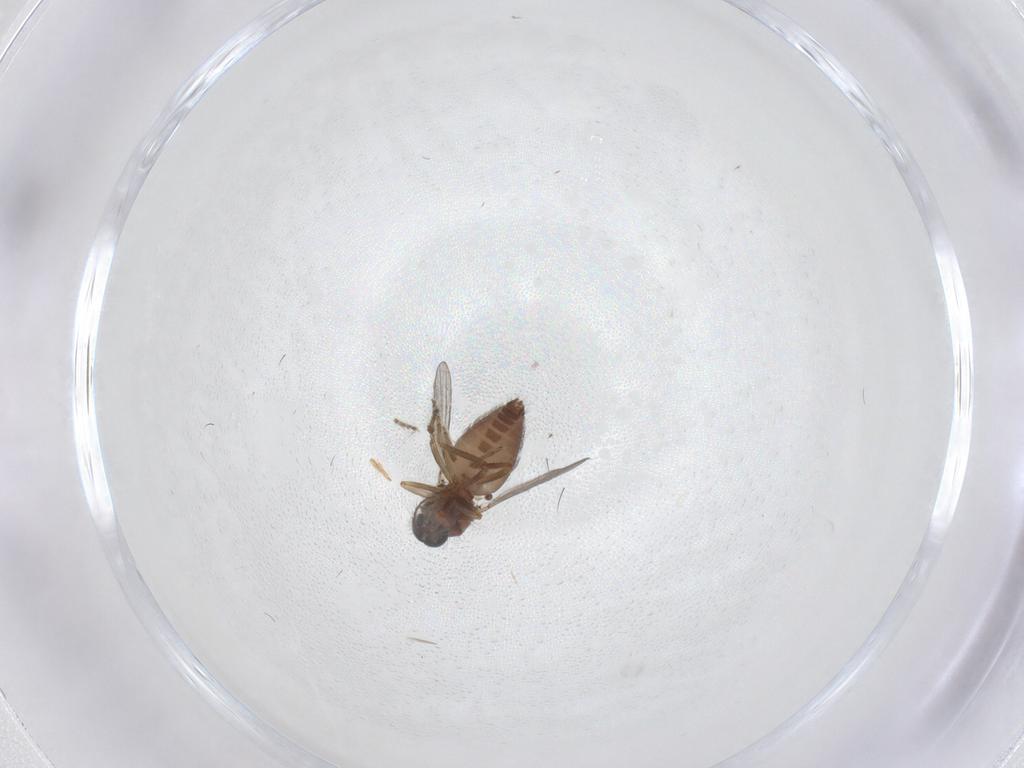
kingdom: Animalia
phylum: Arthropoda
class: Insecta
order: Diptera
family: Ceratopogonidae
